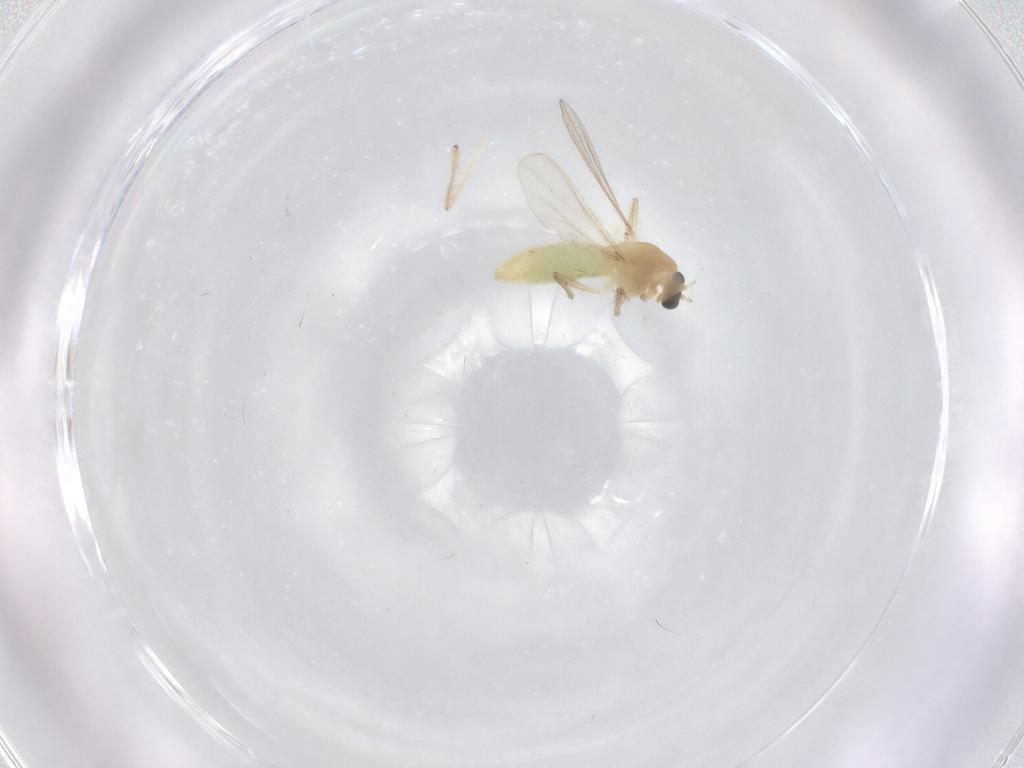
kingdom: Animalia
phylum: Arthropoda
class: Insecta
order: Diptera
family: Chironomidae
